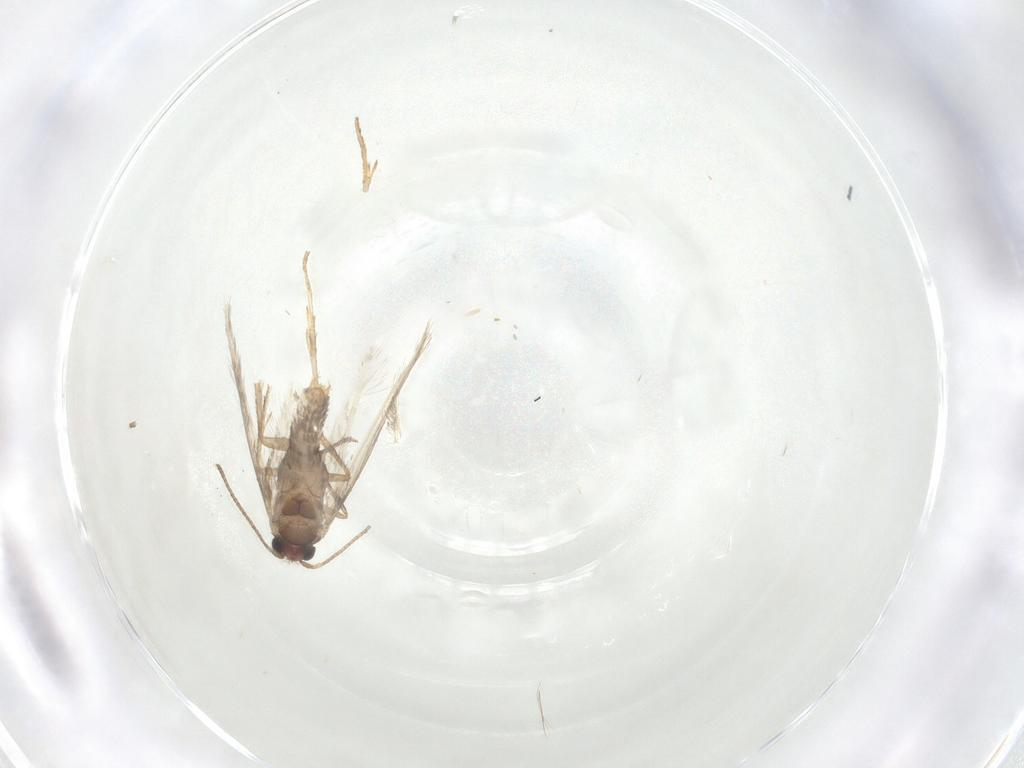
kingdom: Animalia
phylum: Arthropoda
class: Insecta
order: Lepidoptera
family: Nepticulidae
